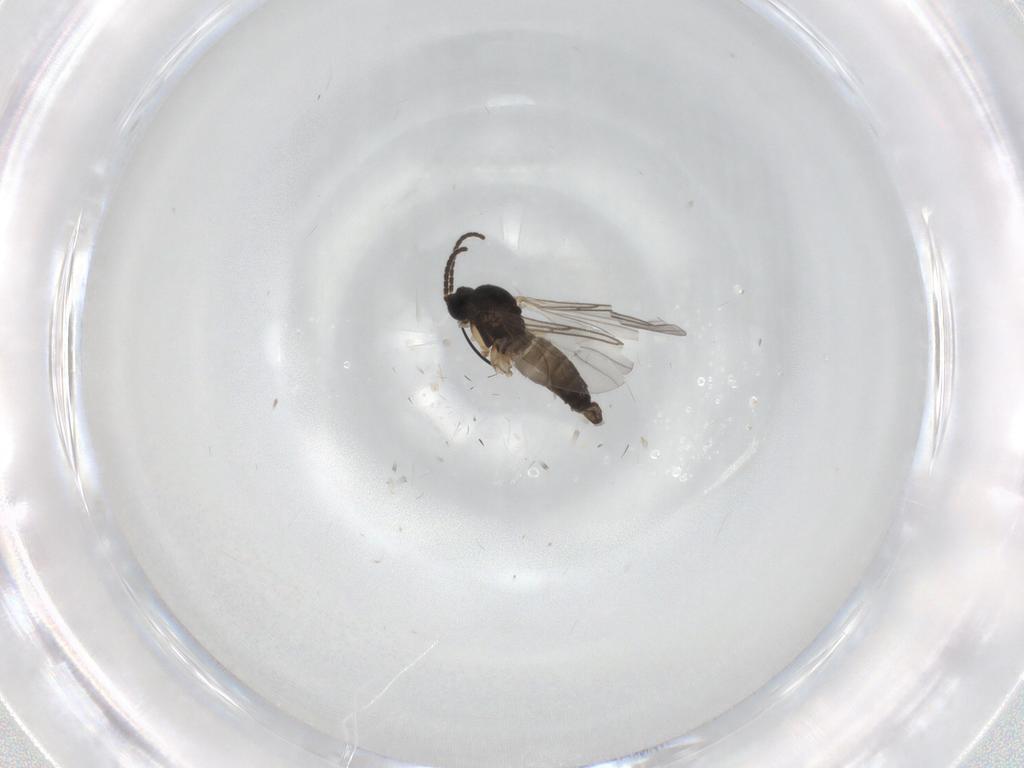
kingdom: Animalia
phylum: Arthropoda
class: Insecta
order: Diptera
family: Sciaridae
